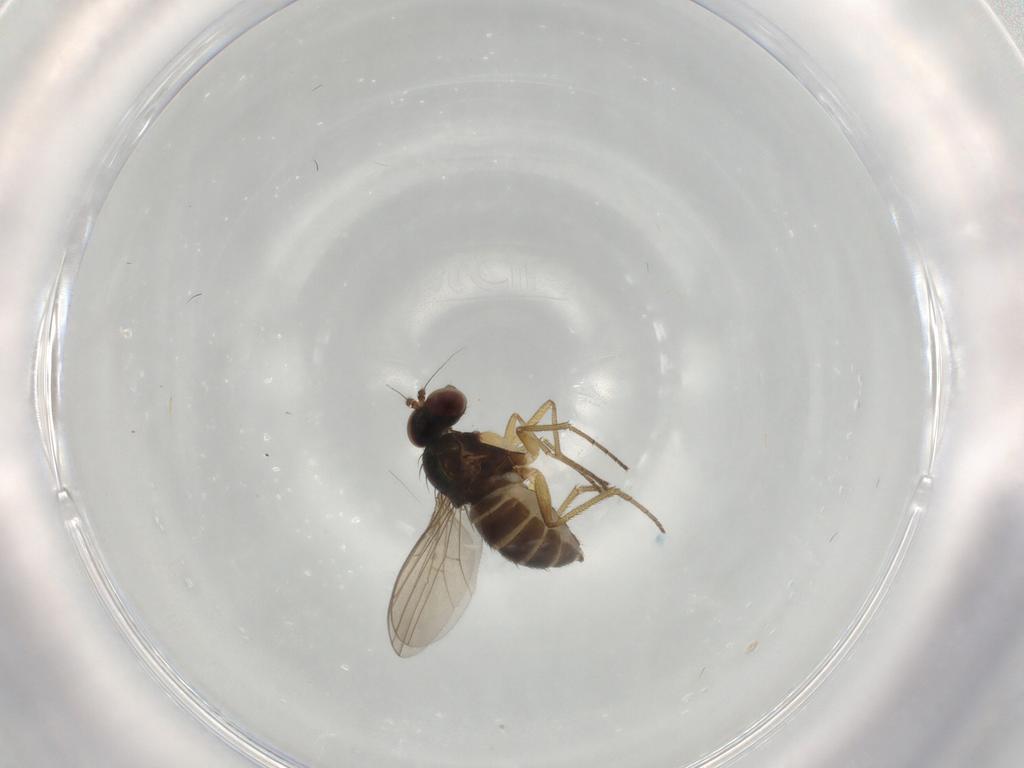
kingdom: Animalia
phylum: Arthropoda
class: Insecta
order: Diptera
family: Dolichopodidae
